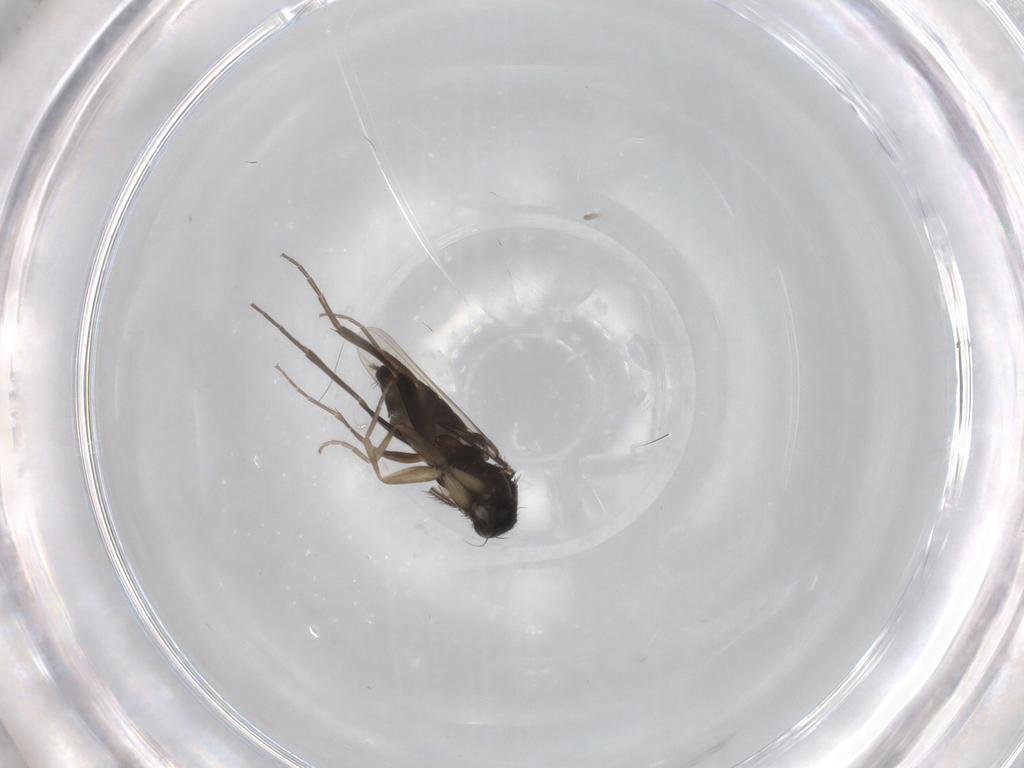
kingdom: Animalia
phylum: Arthropoda
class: Insecta
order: Diptera
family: Phoridae
